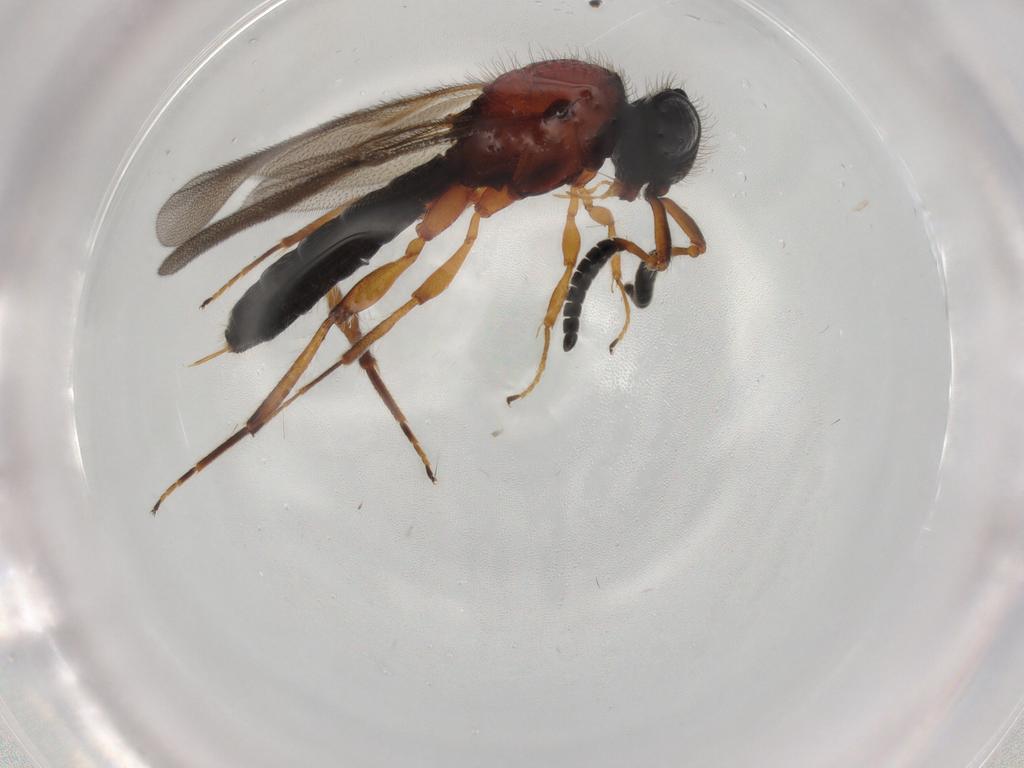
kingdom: Animalia
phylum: Arthropoda
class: Insecta
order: Hymenoptera
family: Scelionidae
